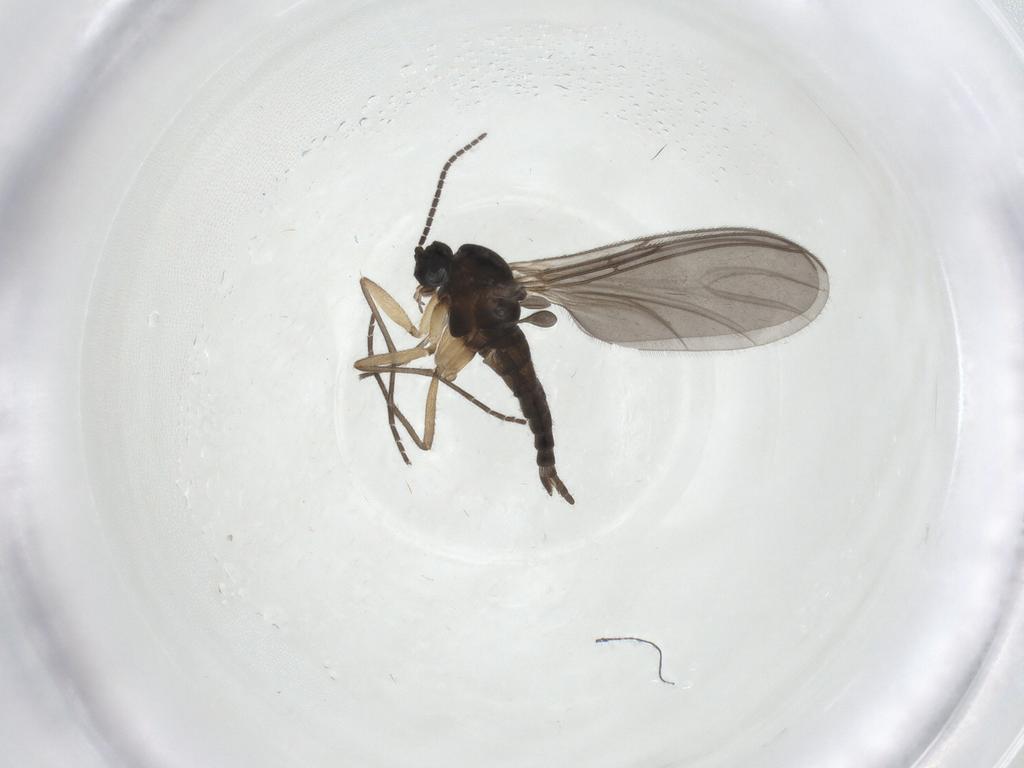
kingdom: Animalia
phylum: Arthropoda
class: Insecta
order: Diptera
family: Sciaridae
